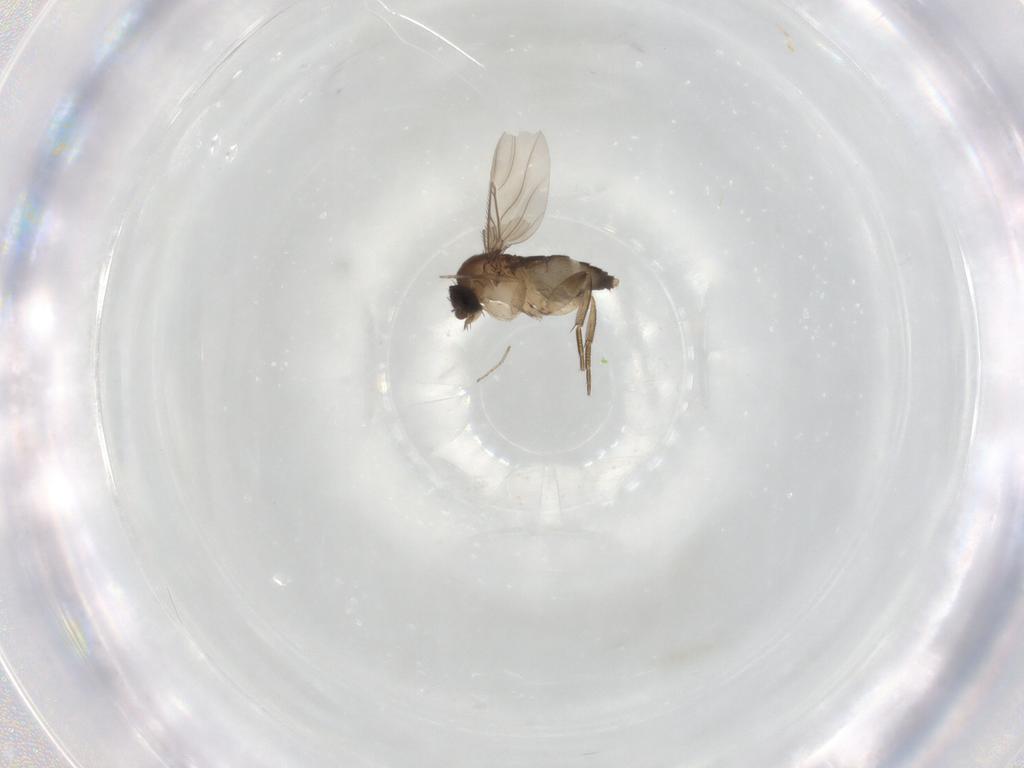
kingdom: Animalia
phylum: Arthropoda
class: Insecta
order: Diptera
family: Phoridae
